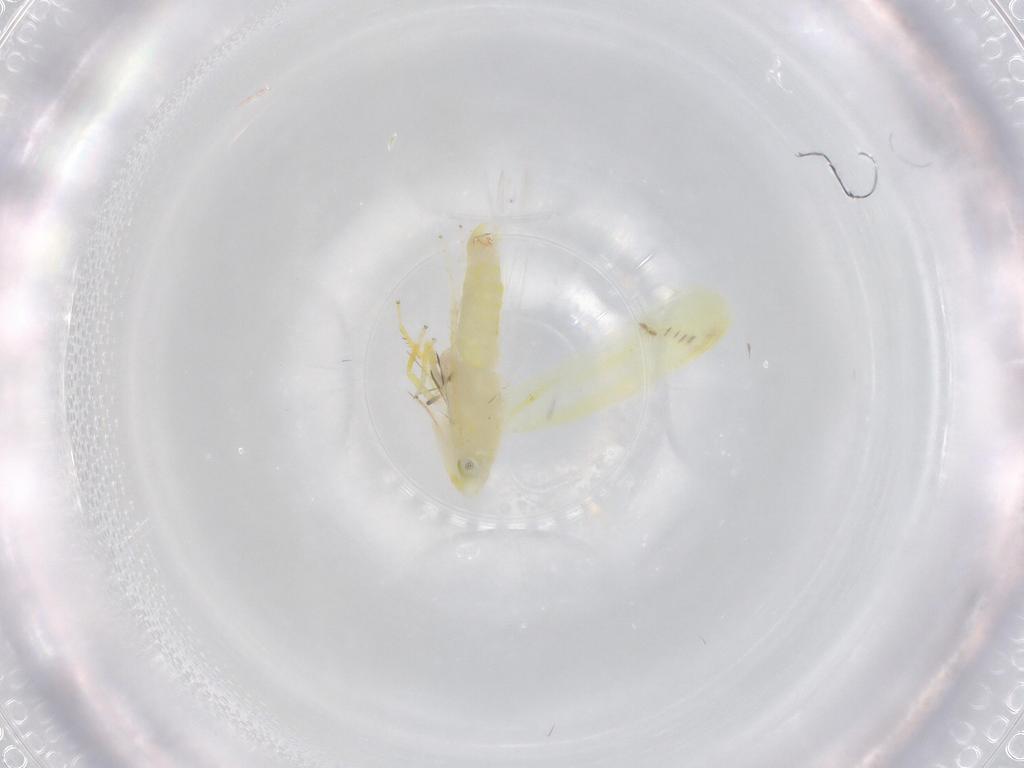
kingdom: Animalia
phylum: Arthropoda
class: Insecta
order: Hemiptera
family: Cicadellidae
